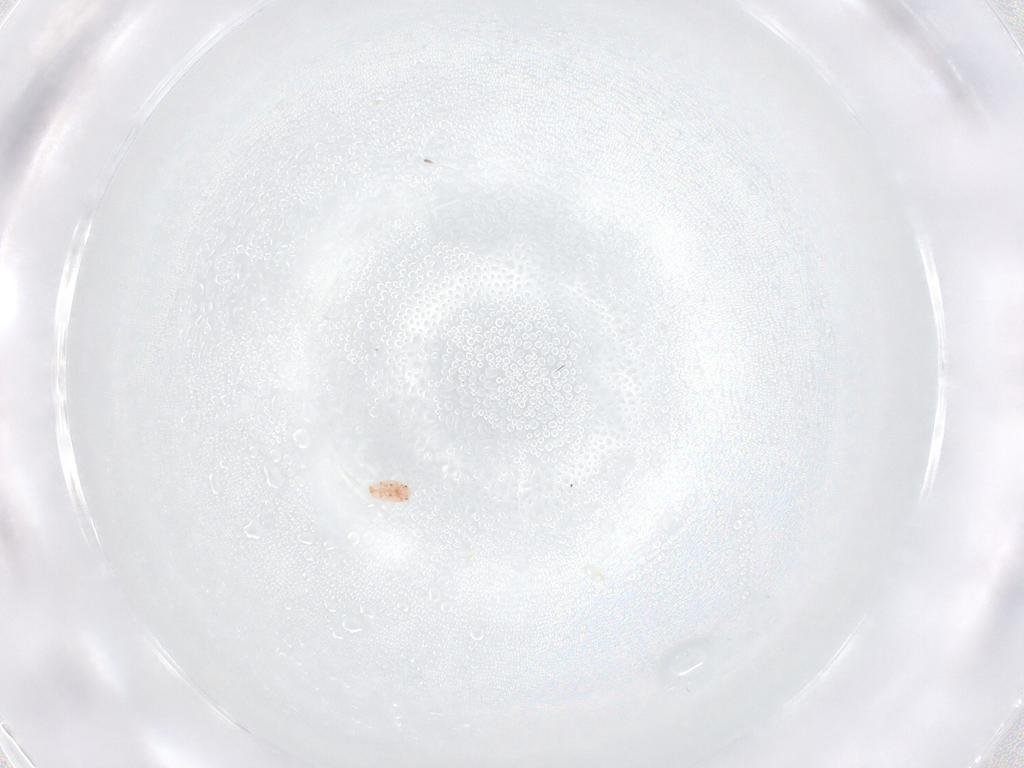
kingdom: Animalia
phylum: Arthropoda
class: Insecta
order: Hemiptera
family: Coccidae
